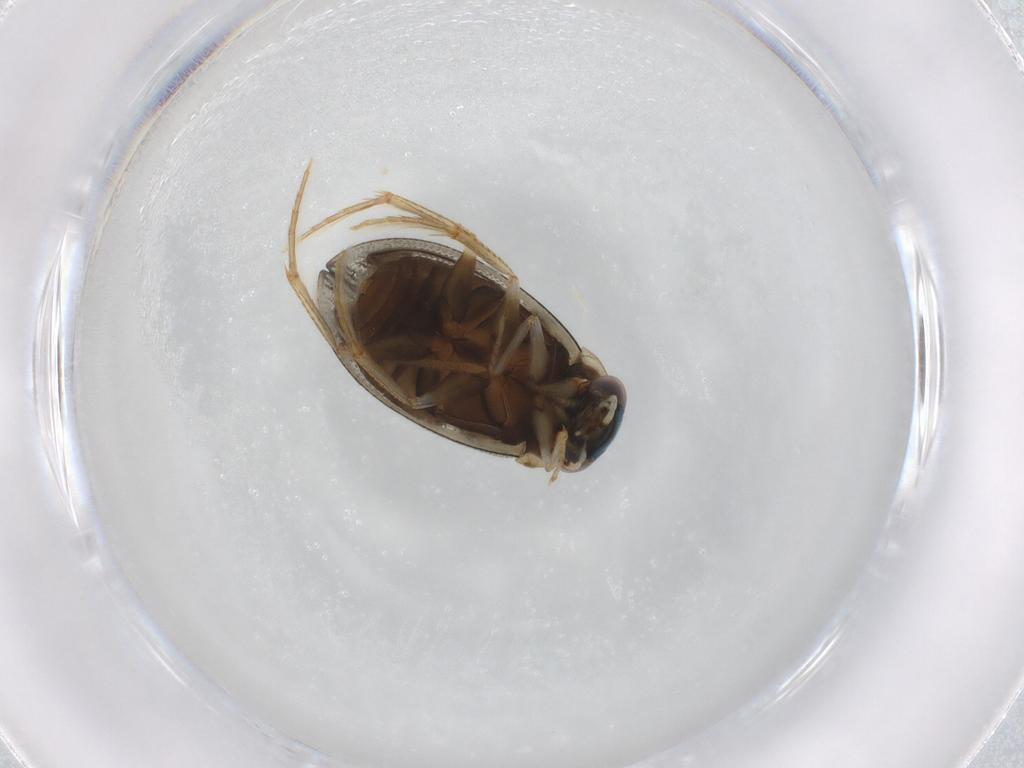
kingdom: Animalia
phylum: Arthropoda
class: Insecta
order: Coleoptera
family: Hydrophilidae
